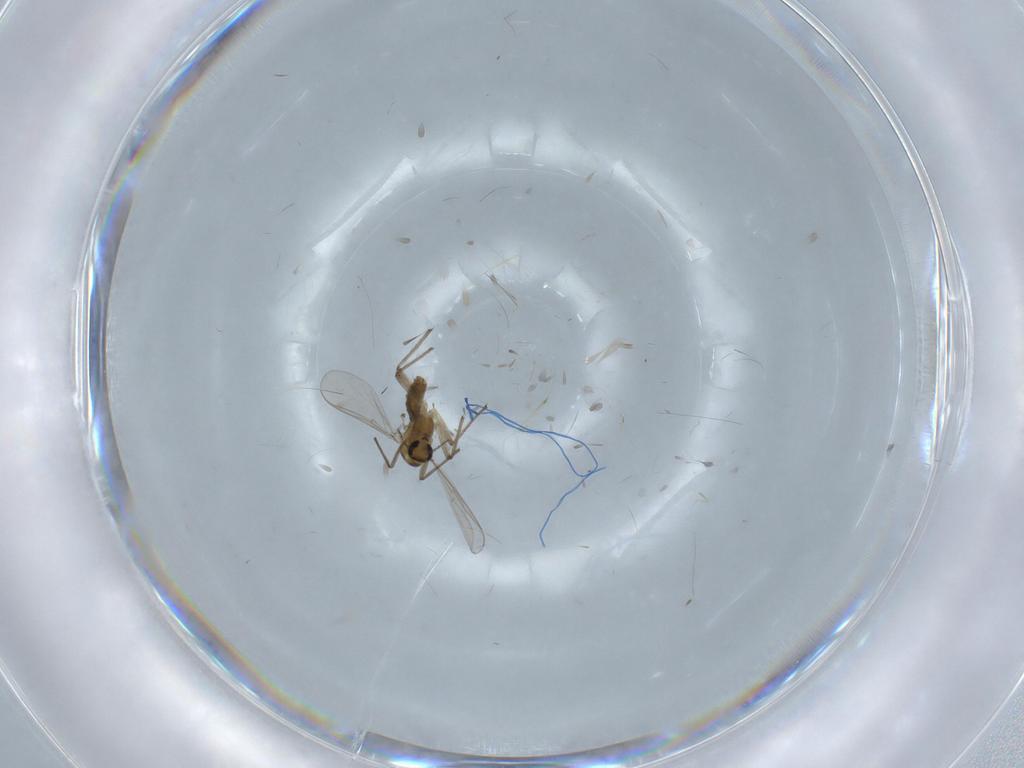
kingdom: Animalia
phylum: Arthropoda
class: Insecta
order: Diptera
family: Chironomidae
